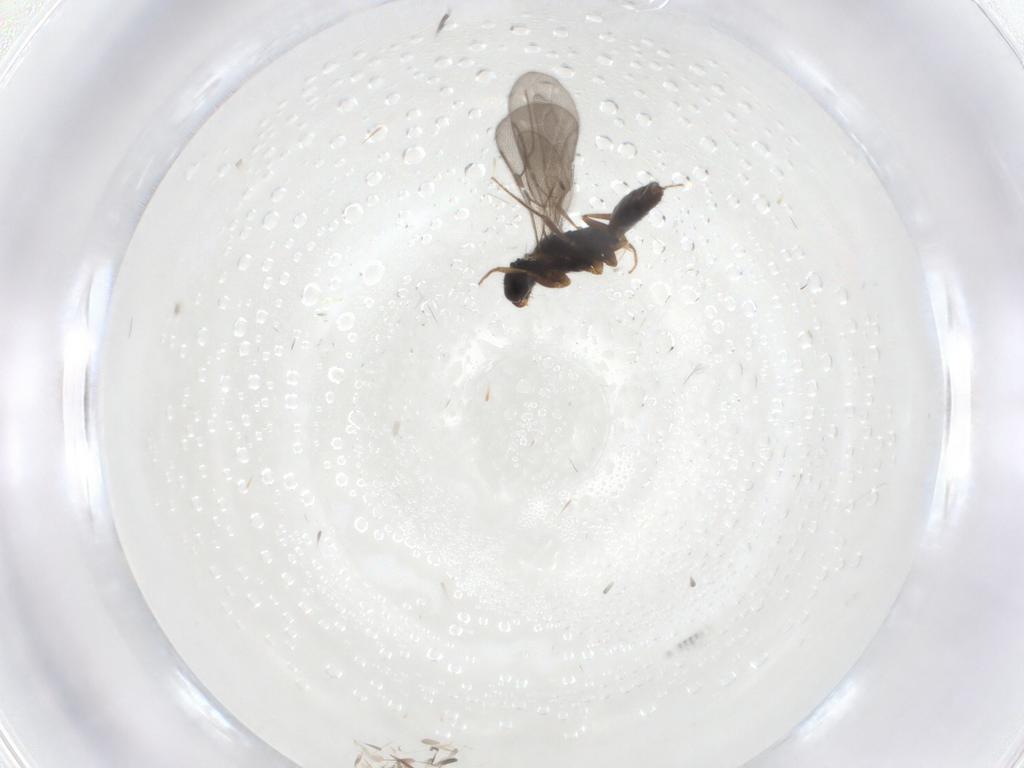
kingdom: Animalia
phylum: Arthropoda
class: Insecta
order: Hymenoptera
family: Bethylidae
